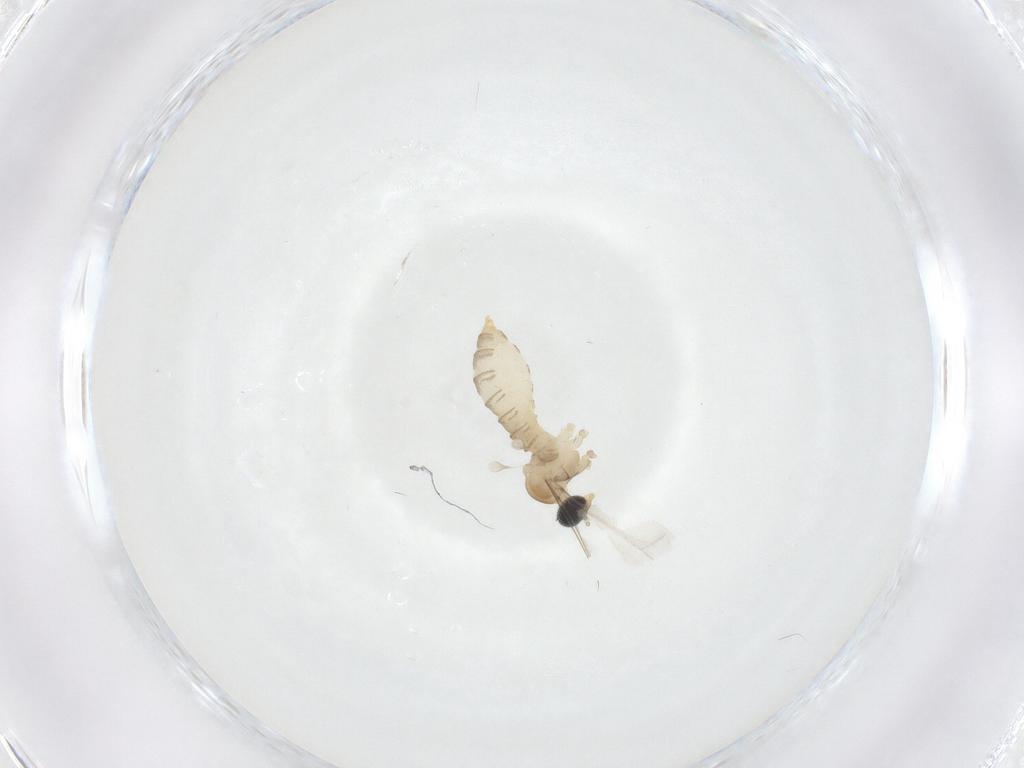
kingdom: Animalia
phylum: Arthropoda
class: Insecta
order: Diptera
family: Cecidomyiidae
